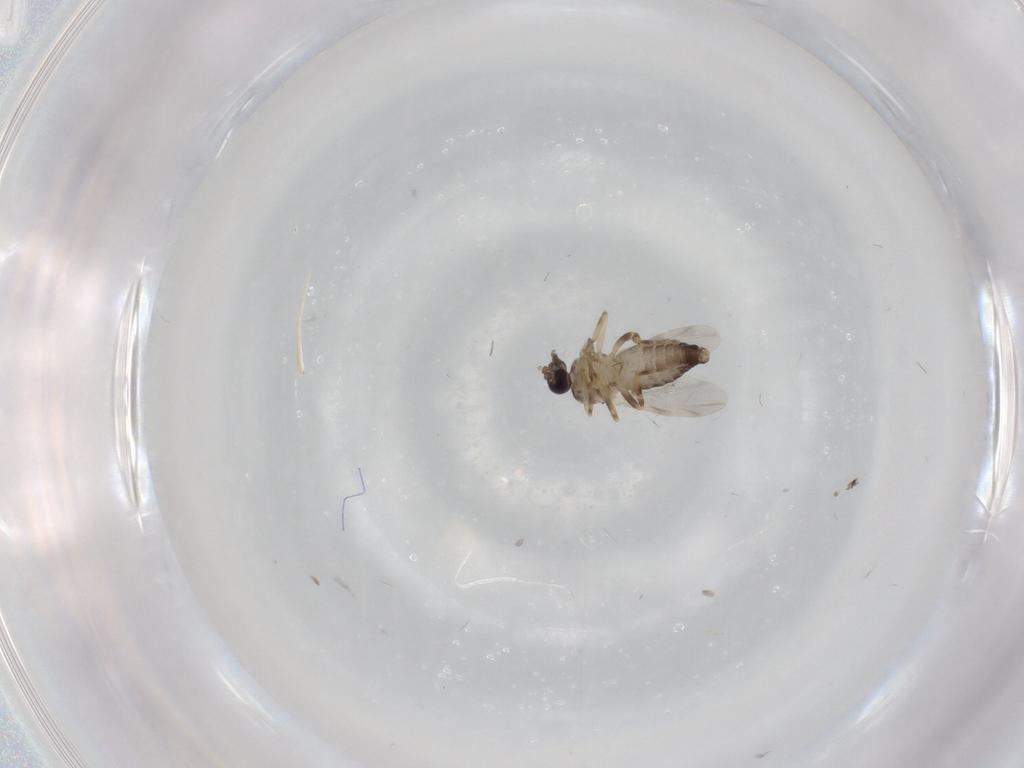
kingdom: Animalia
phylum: Arthropoda
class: Insecta
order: Diptera
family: Ceratopogonidae
